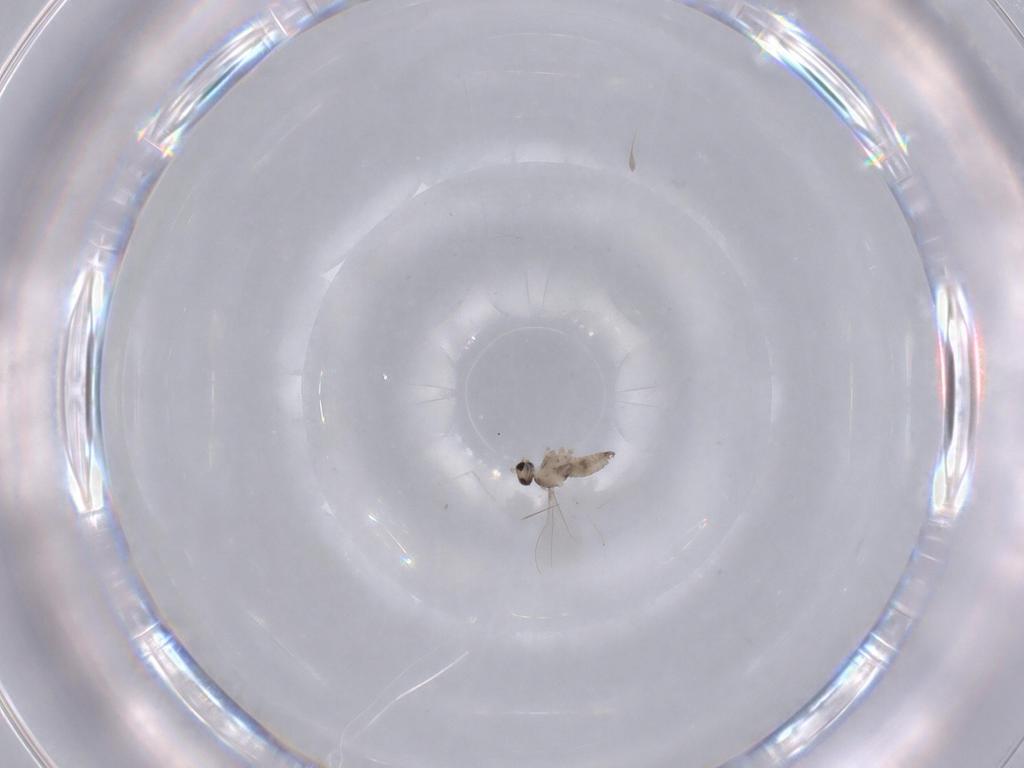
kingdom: Animalia
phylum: Arthropoda
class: Insecta
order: Diptera
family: Cecidomyiidae
